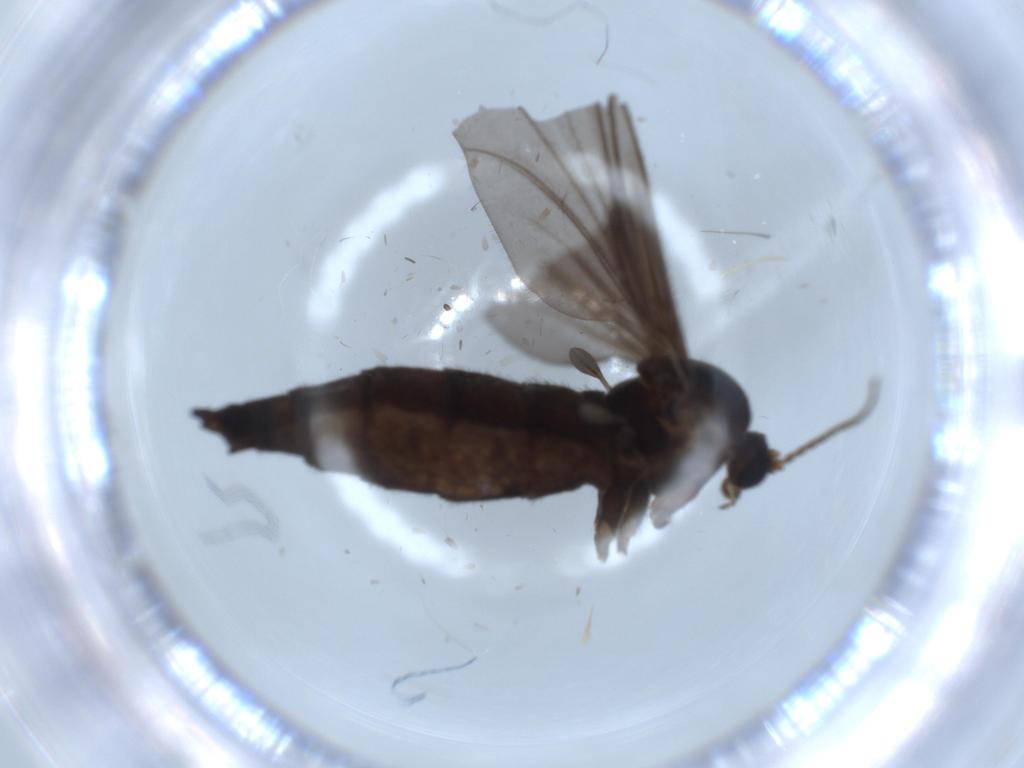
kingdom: Animalia
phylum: Arthropoda
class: Insecta
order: Diptera
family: Sciaridae
